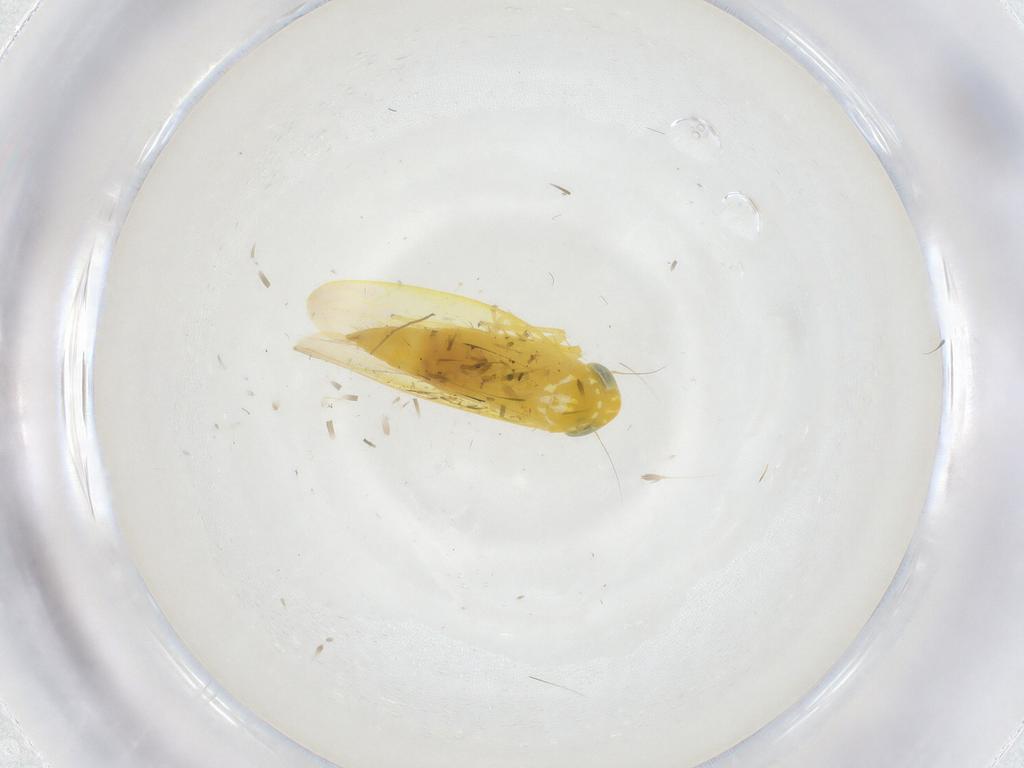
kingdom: Animalia
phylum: Arthropoda
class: Insecta
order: Hemiptera
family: Cicadellidae
